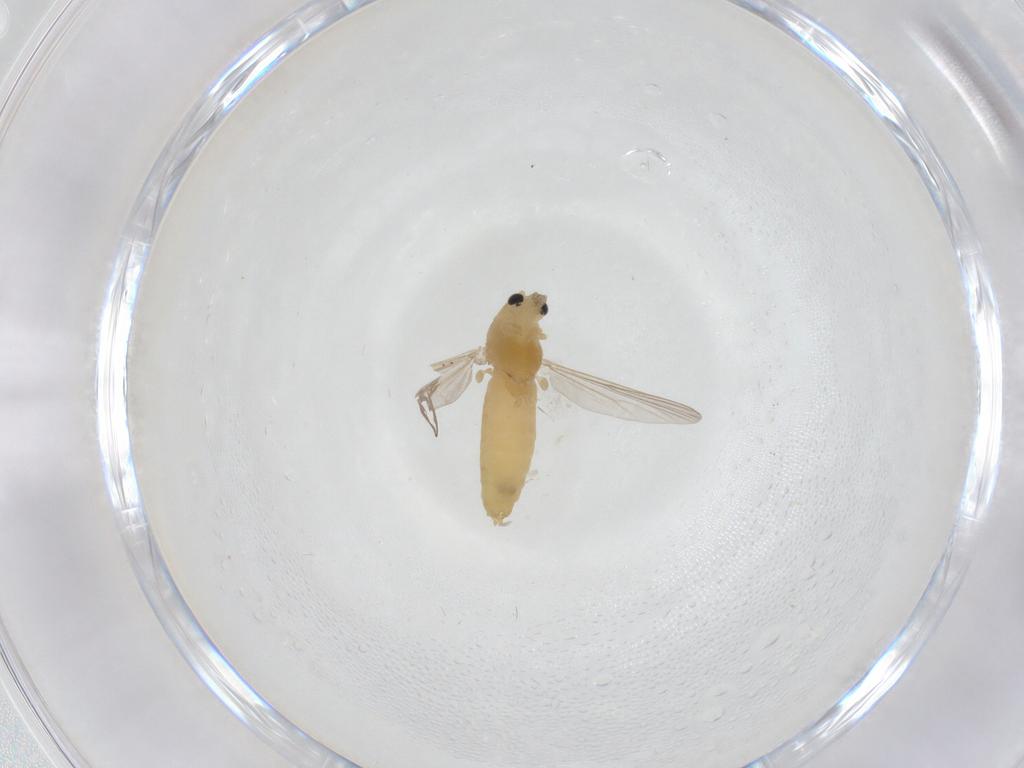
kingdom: Animalia
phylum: Arthropoda
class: Insecta
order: Diptera
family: Chironomidae
